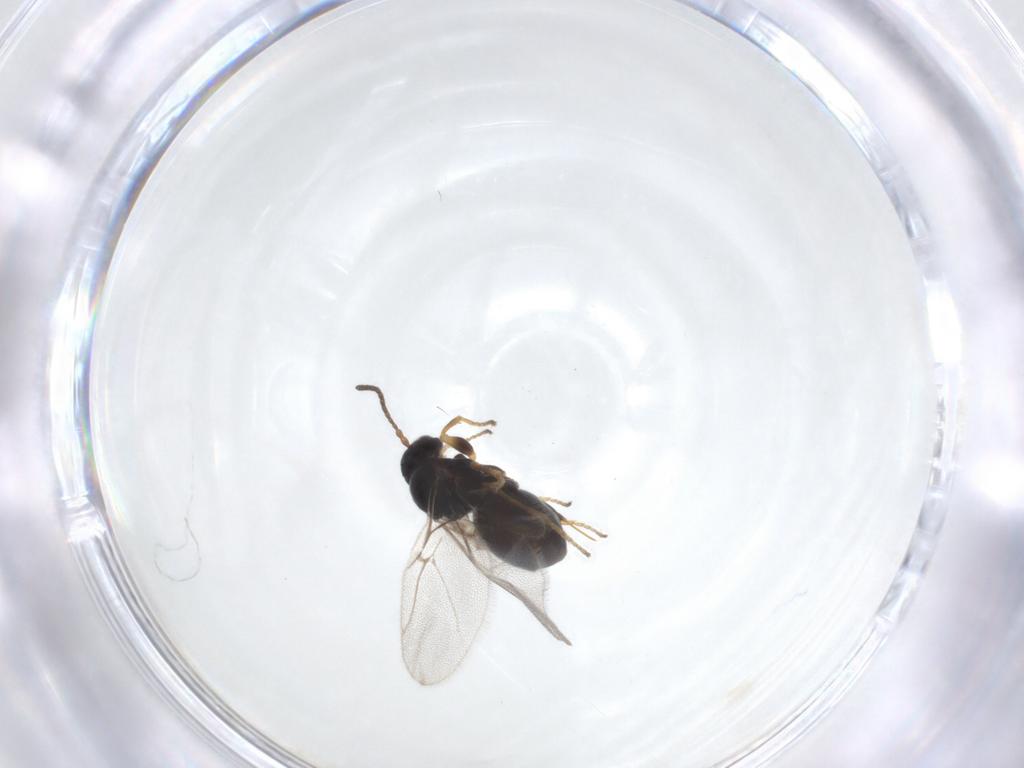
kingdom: Animalia
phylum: Arthropoda
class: Insecta
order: Hymenoptera
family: Cynipidae
